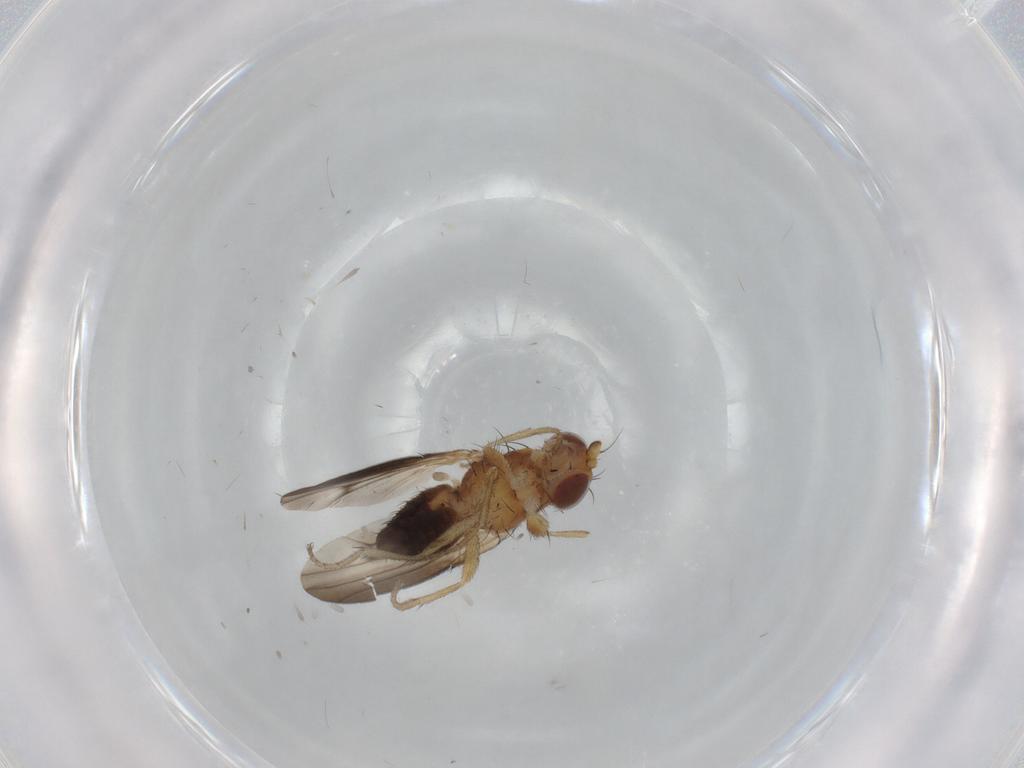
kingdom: Animalia
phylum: Arthropoda
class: Insecta
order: Diptera
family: Heleomyzidae
